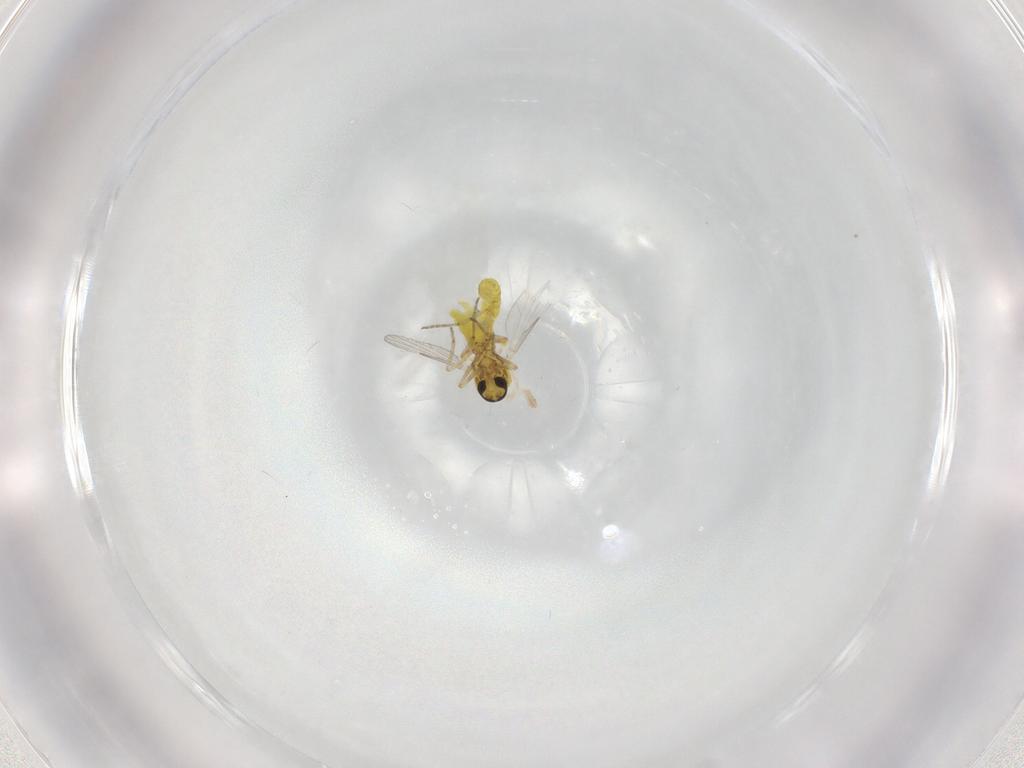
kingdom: Animalia
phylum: Arthropoda
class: Insecta
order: Diptera
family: Ceratopogonidae
